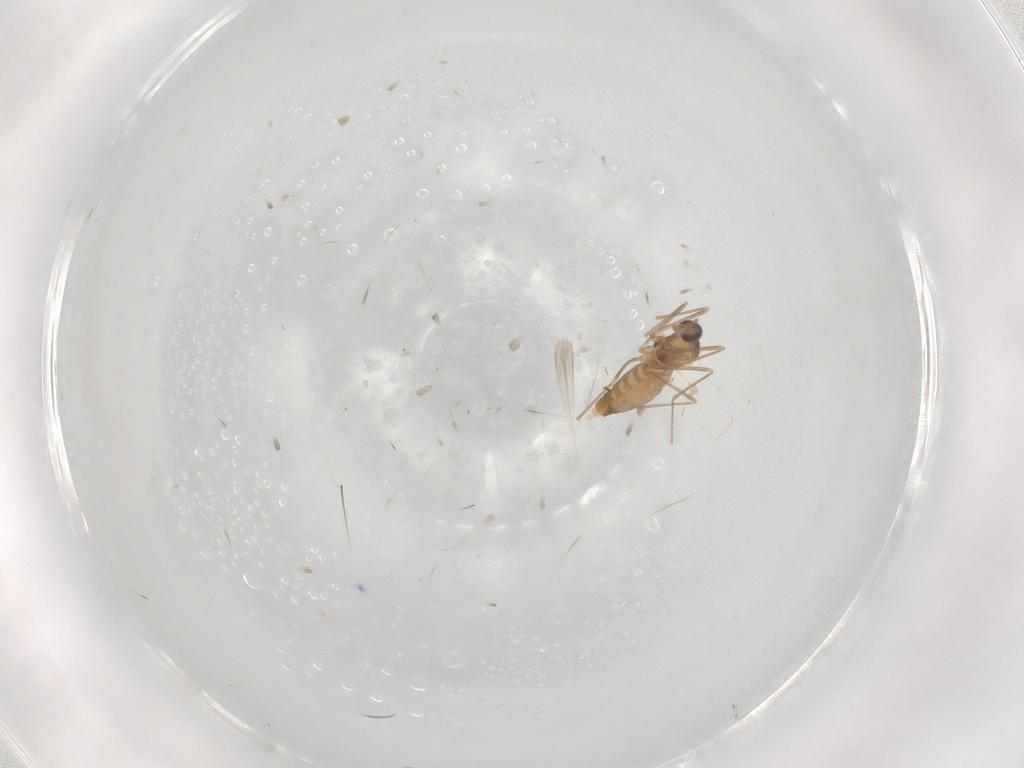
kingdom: Animalia
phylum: Arthropoda
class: Insecta
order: Diptera
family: Cecidomyiidae
